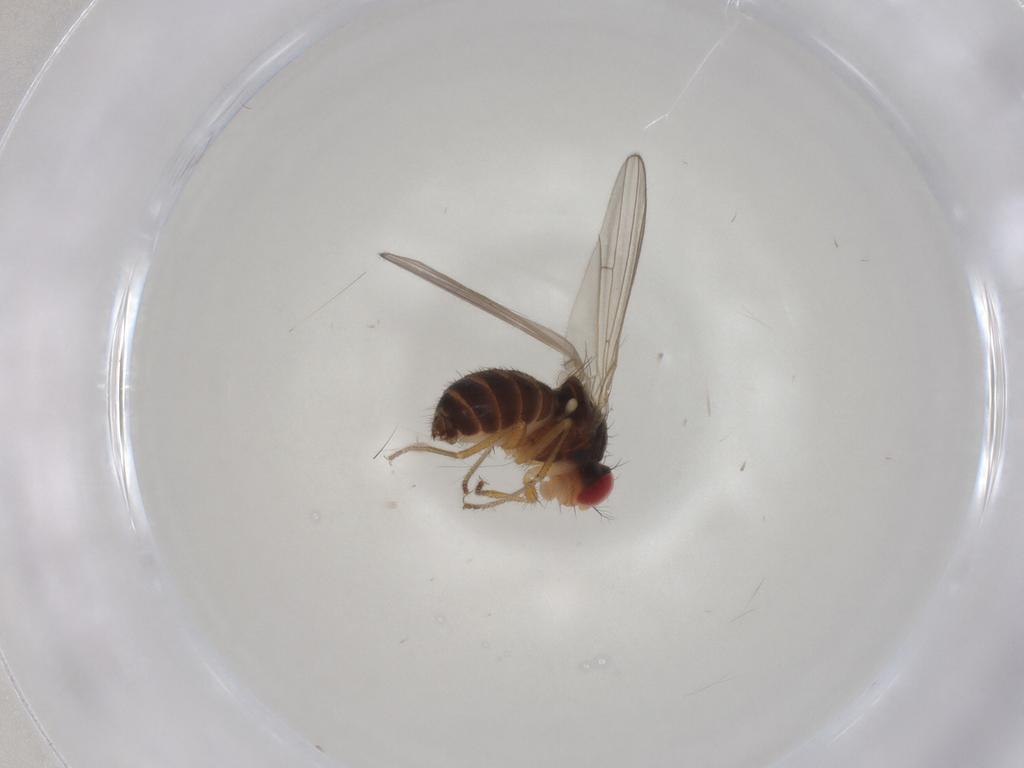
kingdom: Animalia
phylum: Arthropoda
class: Insecta
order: Diptera
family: Drosophilidae
